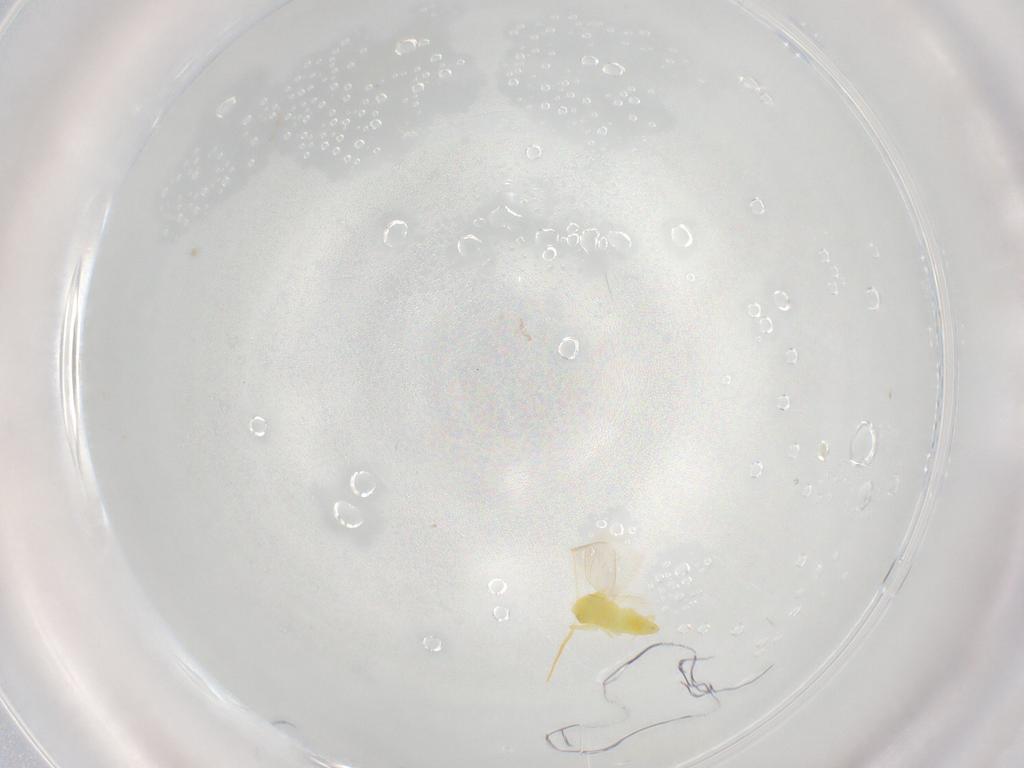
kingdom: Animalia
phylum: Arthropoda
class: Insecta
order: Hemiptera
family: Aleyrodidae
